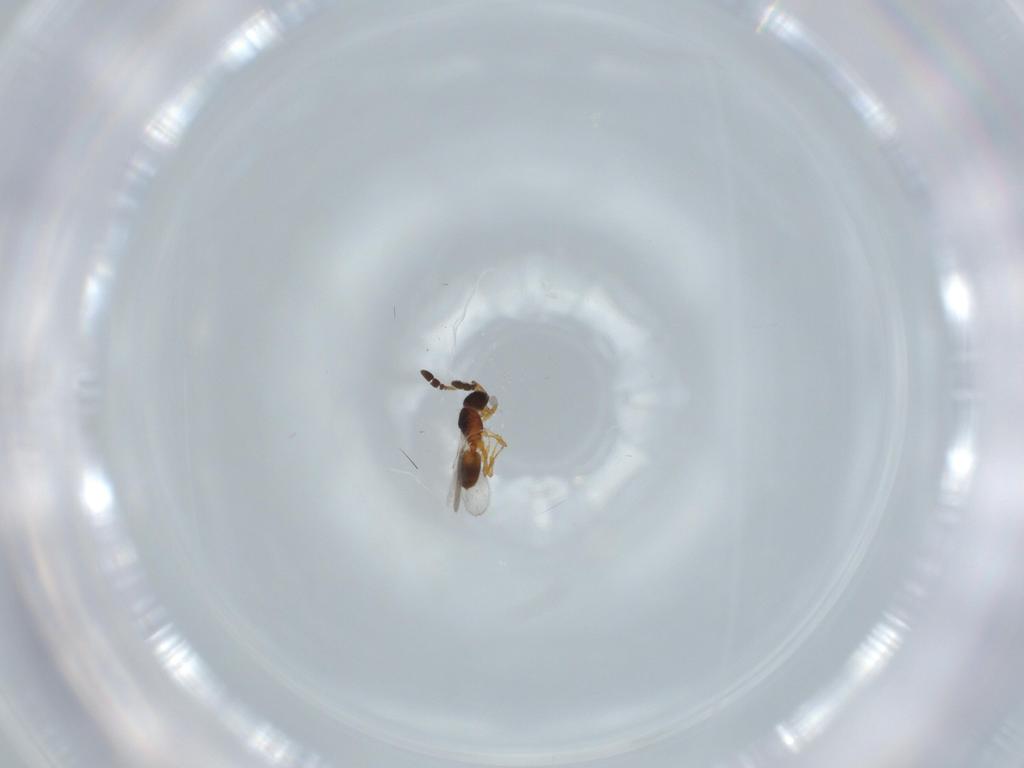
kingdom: Animalia
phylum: Arthropoda
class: Insecta
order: Hymenoptera
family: Diapriidae
